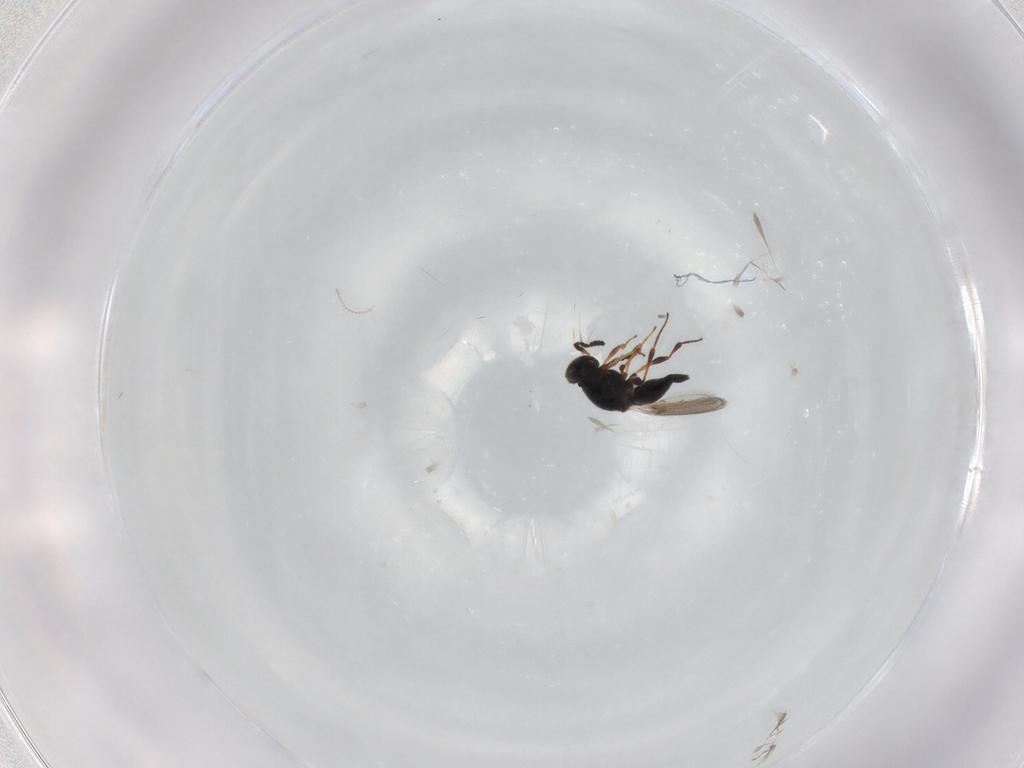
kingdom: Animalia
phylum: Arthropoda
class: Insecta
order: Hymenoptera
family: Platygastridae
